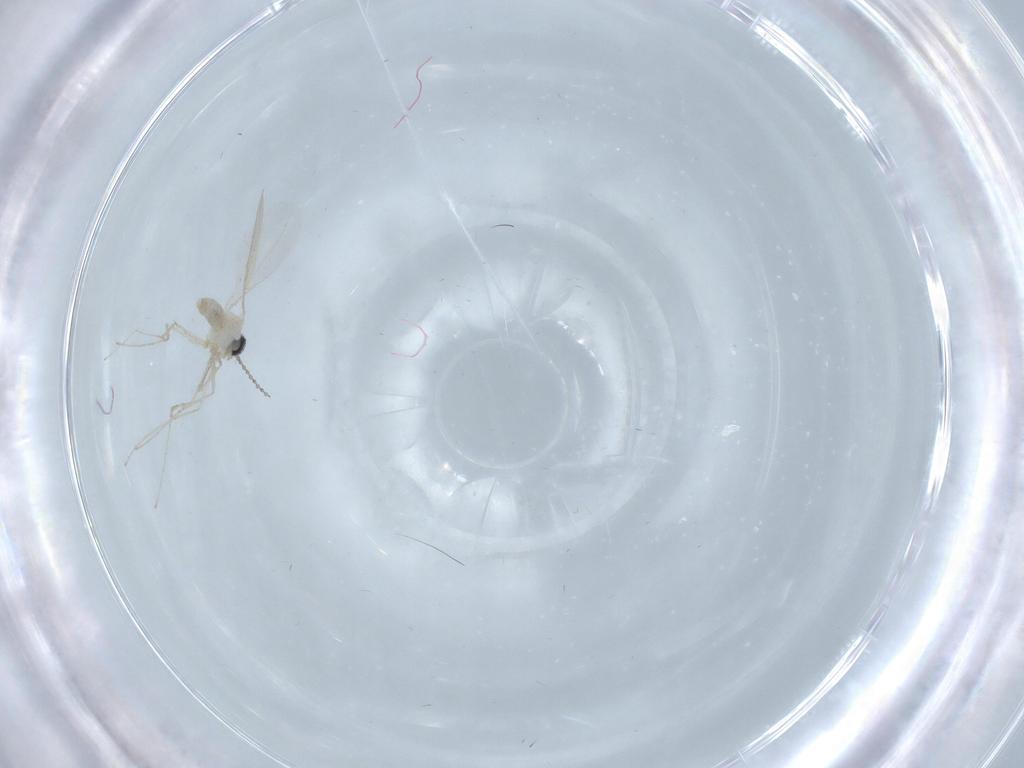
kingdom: Animalia
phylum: Arthropoda
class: Insecta
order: Diptera
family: Cecidomyiidae
